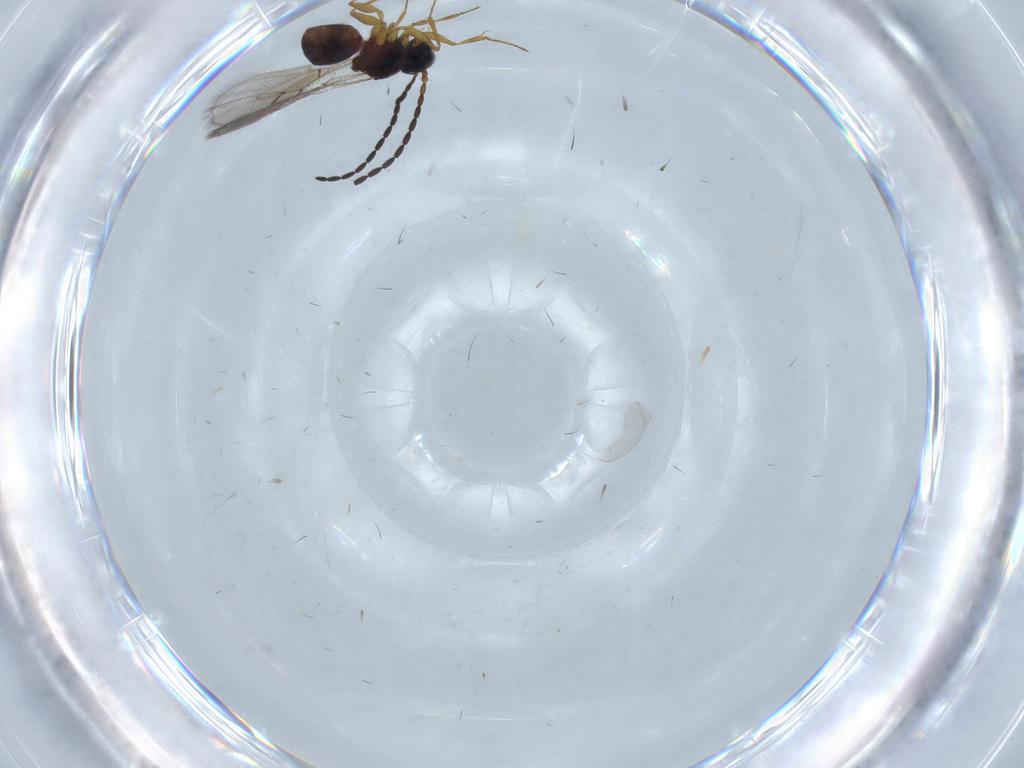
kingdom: Animalia
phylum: Arthropoda
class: Insecta
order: Hymenoptera
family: Figitidae
